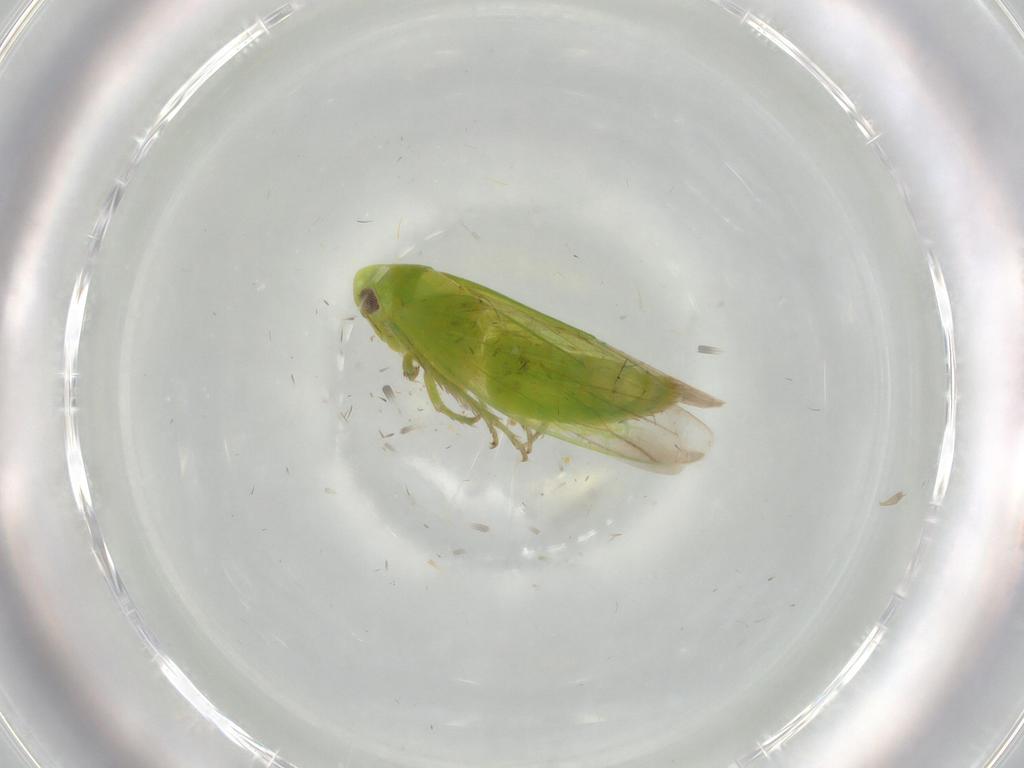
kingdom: Animalia
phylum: Arthropoda
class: Insecta
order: Hemiptera
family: Cicadellidae
